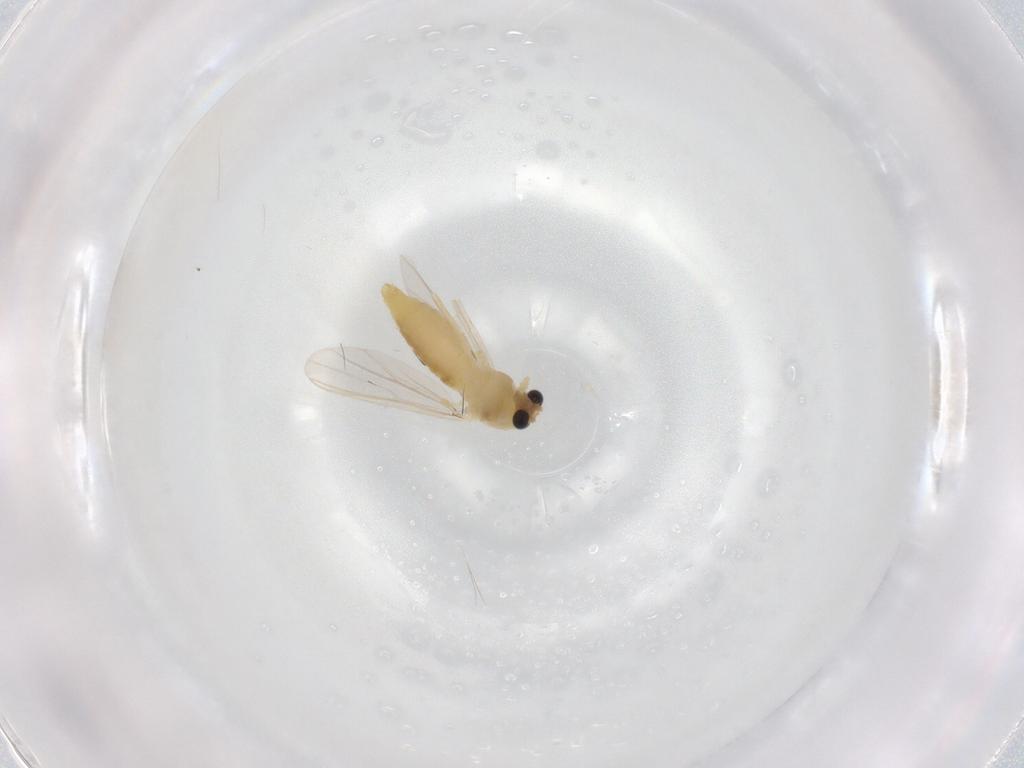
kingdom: Animalia
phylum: Arthropoda
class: Insecta
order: Diptera
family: Chironomidae
